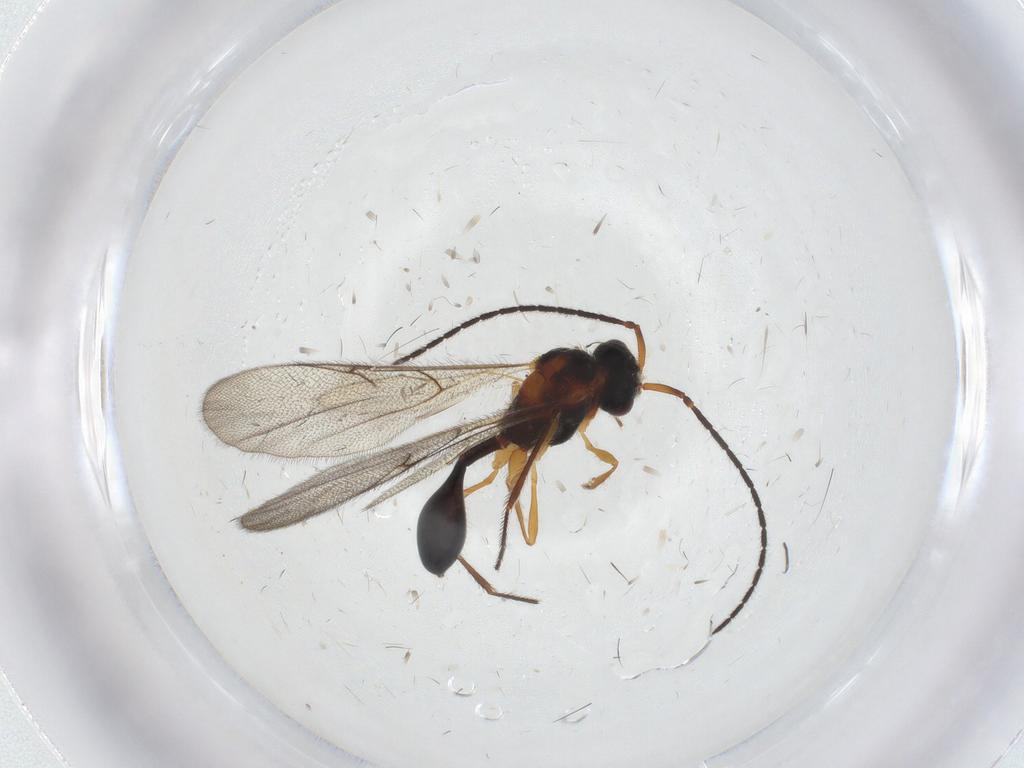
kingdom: Animalia
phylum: Arthropoda
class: Insecta
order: Hymenoptera
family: Diapriidae
